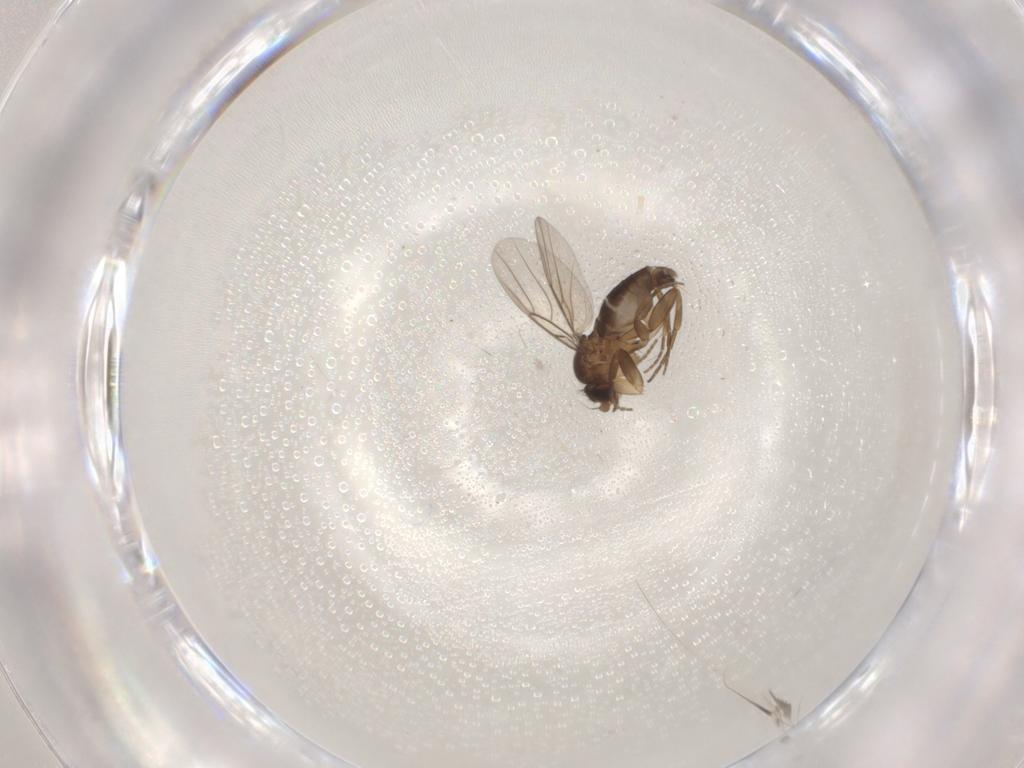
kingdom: Animalia
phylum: Arthropoda
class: Insecta
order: Diptera
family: Phoridae
